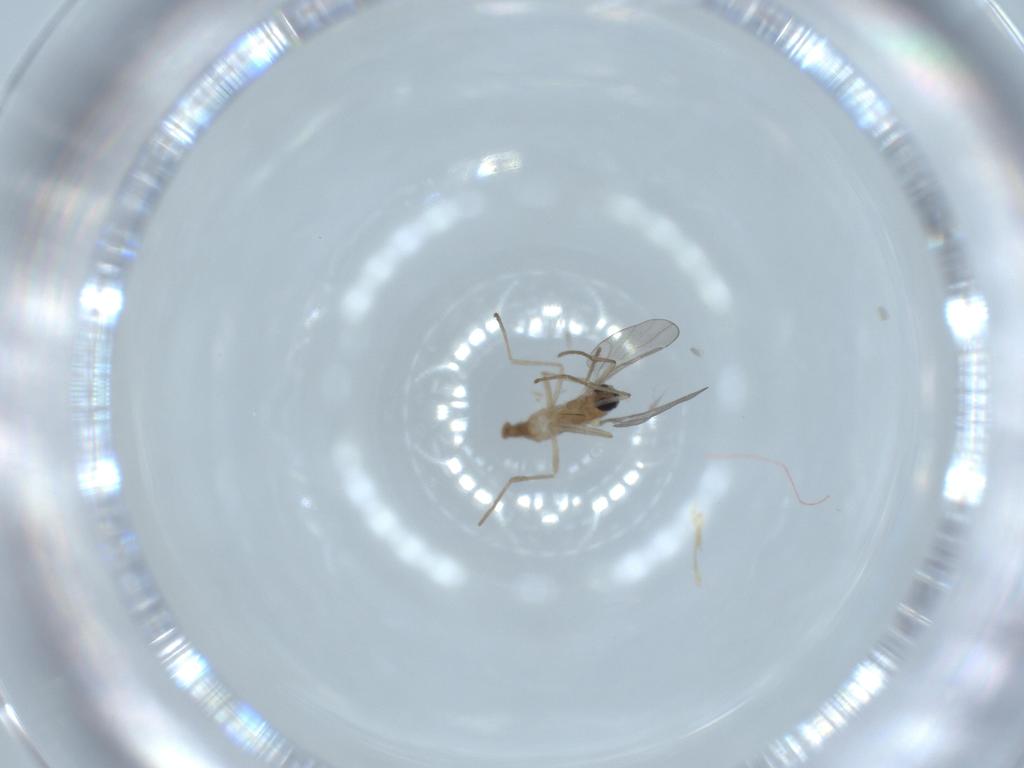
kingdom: Animalia
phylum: Arthropoda
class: Insecta
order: Diptera
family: Cecidomyiidae
